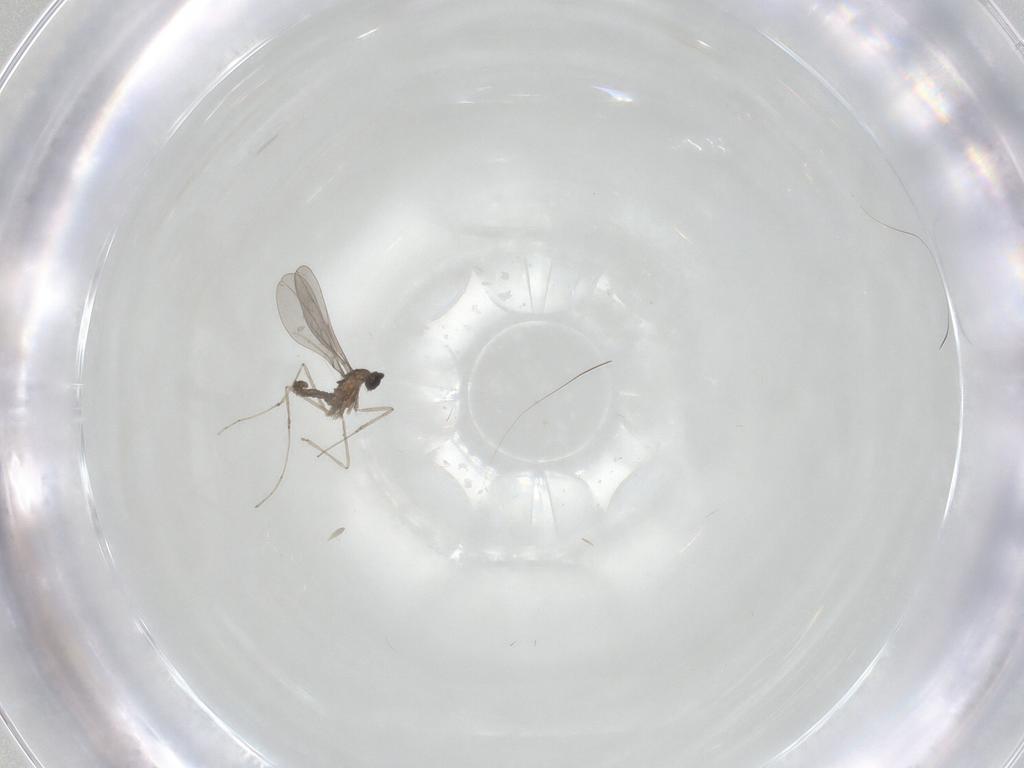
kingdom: Animalia
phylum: Arthropoda
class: Insecta
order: Diptera
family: Cecidomyiidae
